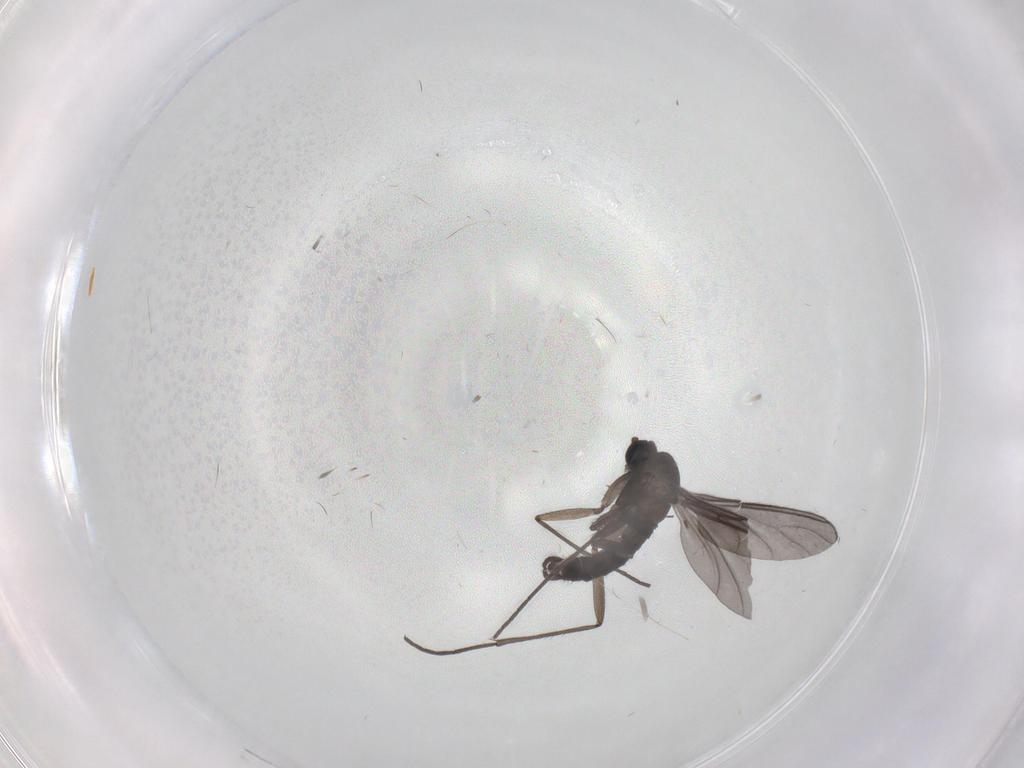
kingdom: Animalia
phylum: Arthropoda
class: Insecta
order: Diptera
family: Sciaridae
